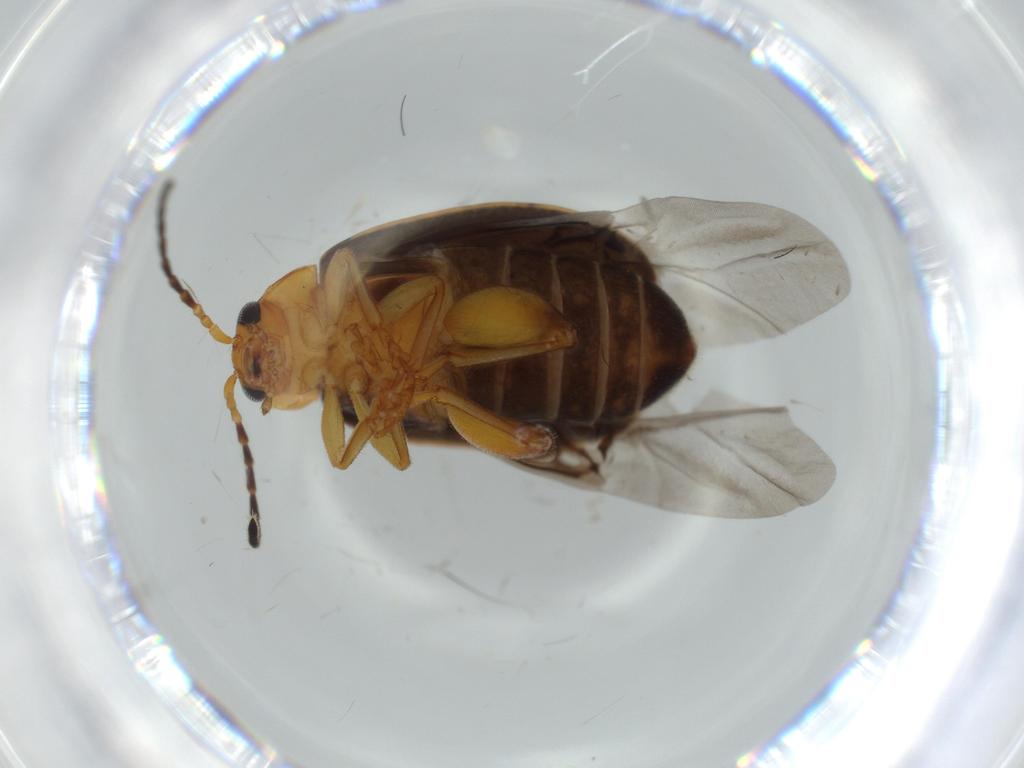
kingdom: Animalia
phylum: Arthropoda
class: Insecta
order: Coleoptera
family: Chrysomelidae
